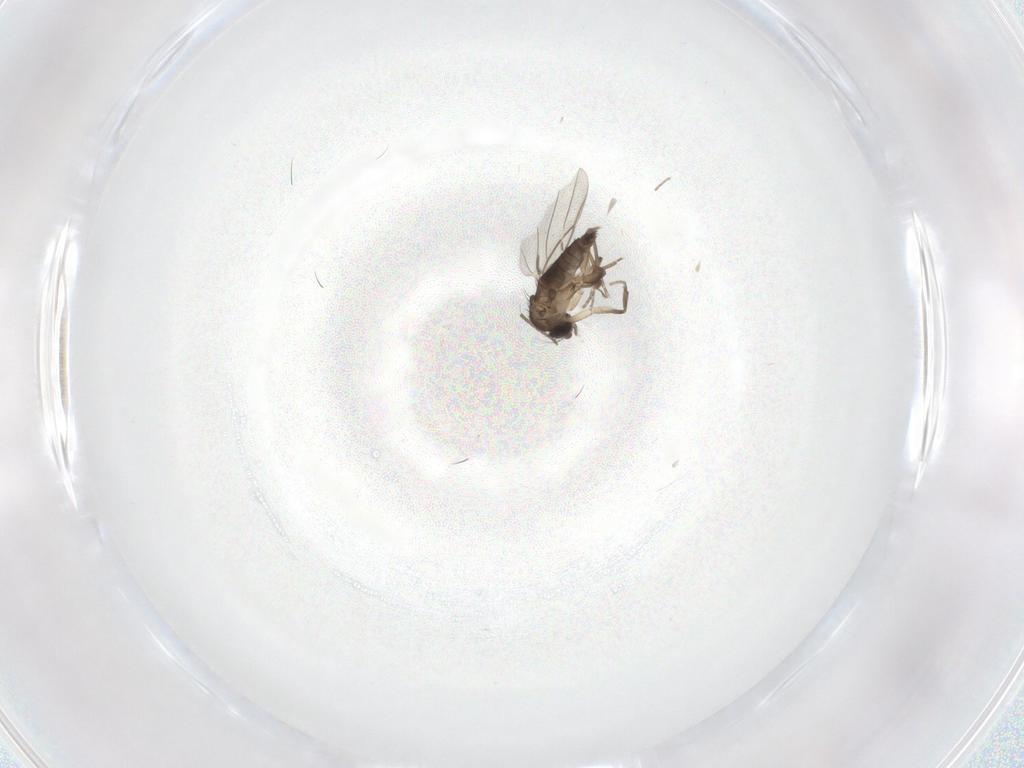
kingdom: Animalia
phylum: Arthropoda
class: Insecta
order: Diptera
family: Phoridae
